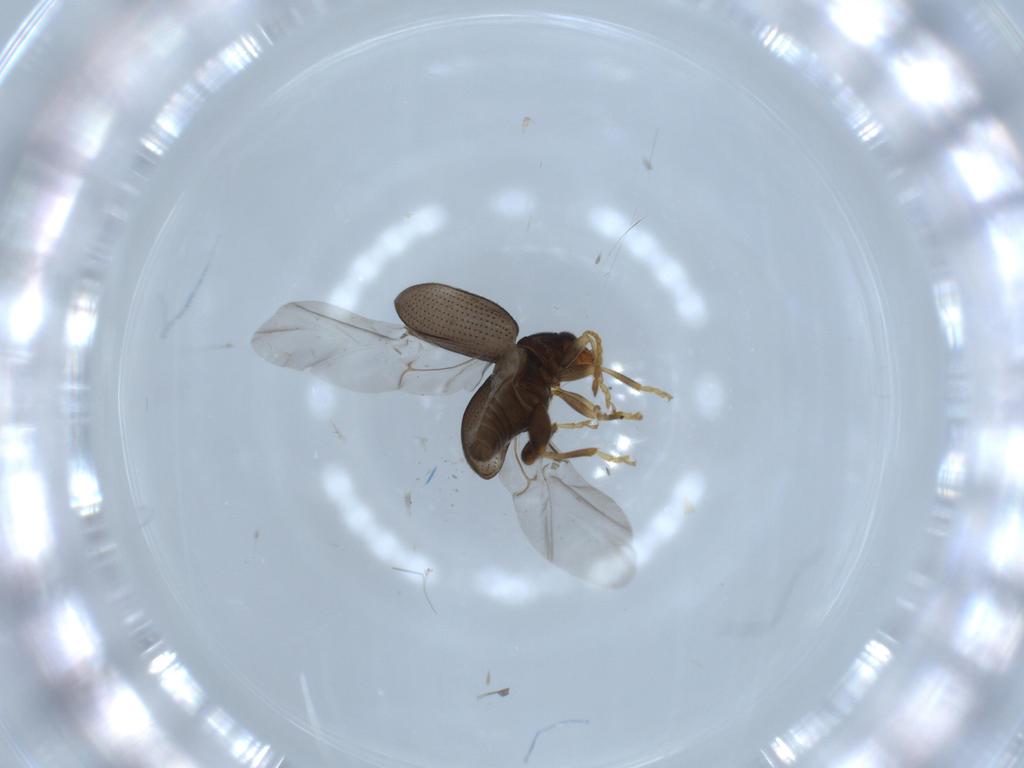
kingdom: Animalia
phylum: Arthropoda
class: Insecta
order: Coleoptera
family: Chrysomelidae
